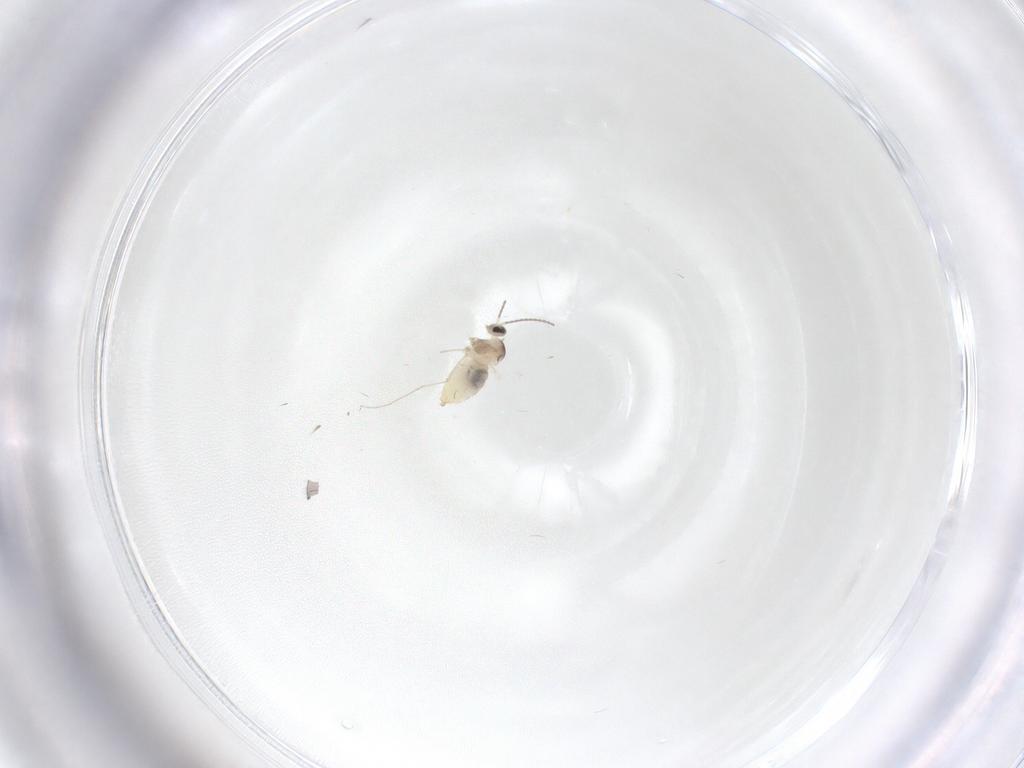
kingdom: Animalia
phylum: Arthropoda
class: Insecta
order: Diptera
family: Cecidomyiidae
